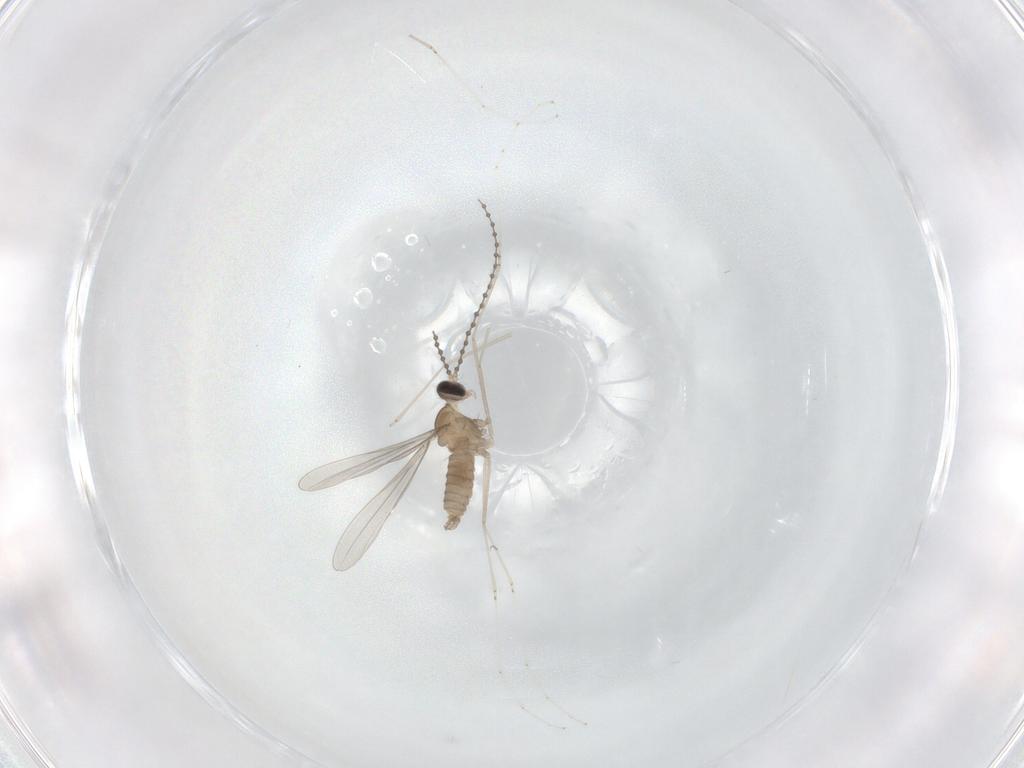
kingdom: Animalia
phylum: Arthropoda
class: Insecta
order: Diptera
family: Cecidomyiidae
